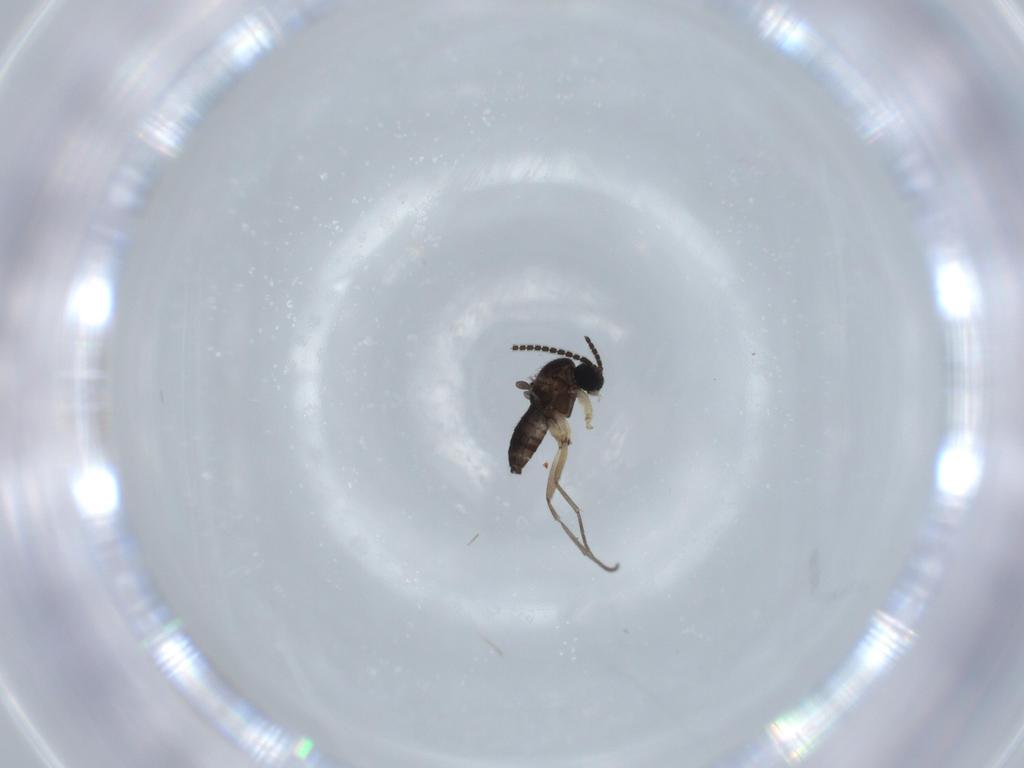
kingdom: Animalia
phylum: Arthropoda
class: Insecta
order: Diptera
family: Sciaridae
